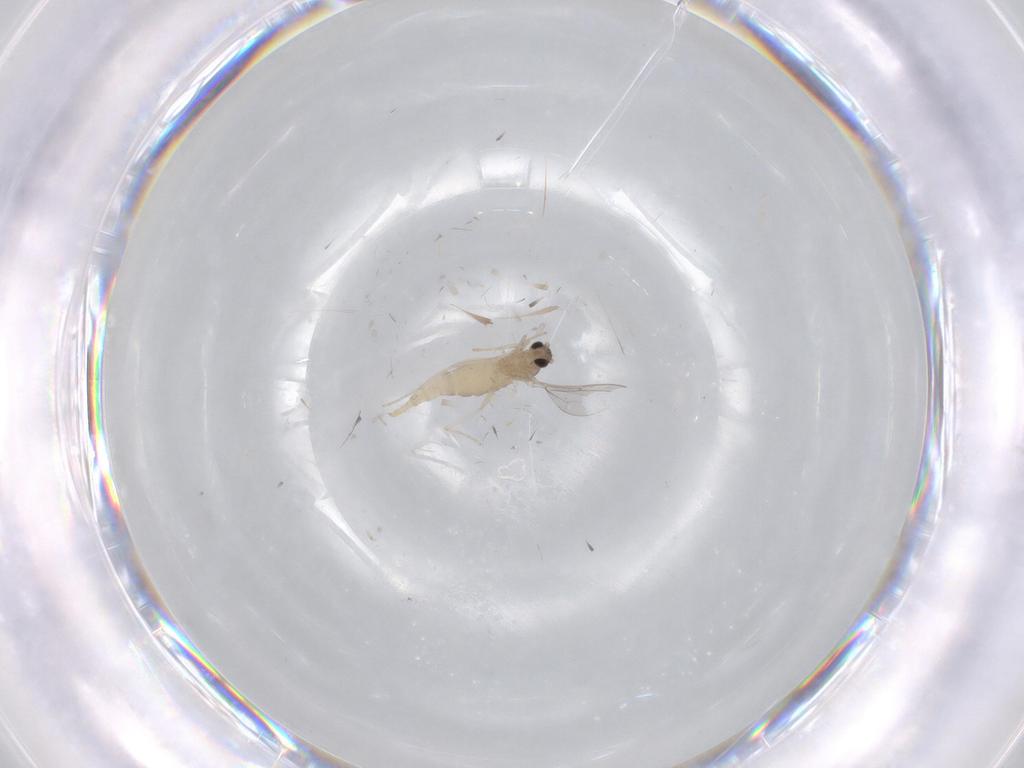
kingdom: Animalia
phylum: Arthropoda
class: Insecta
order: Diptera
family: Cecidomyiidae
